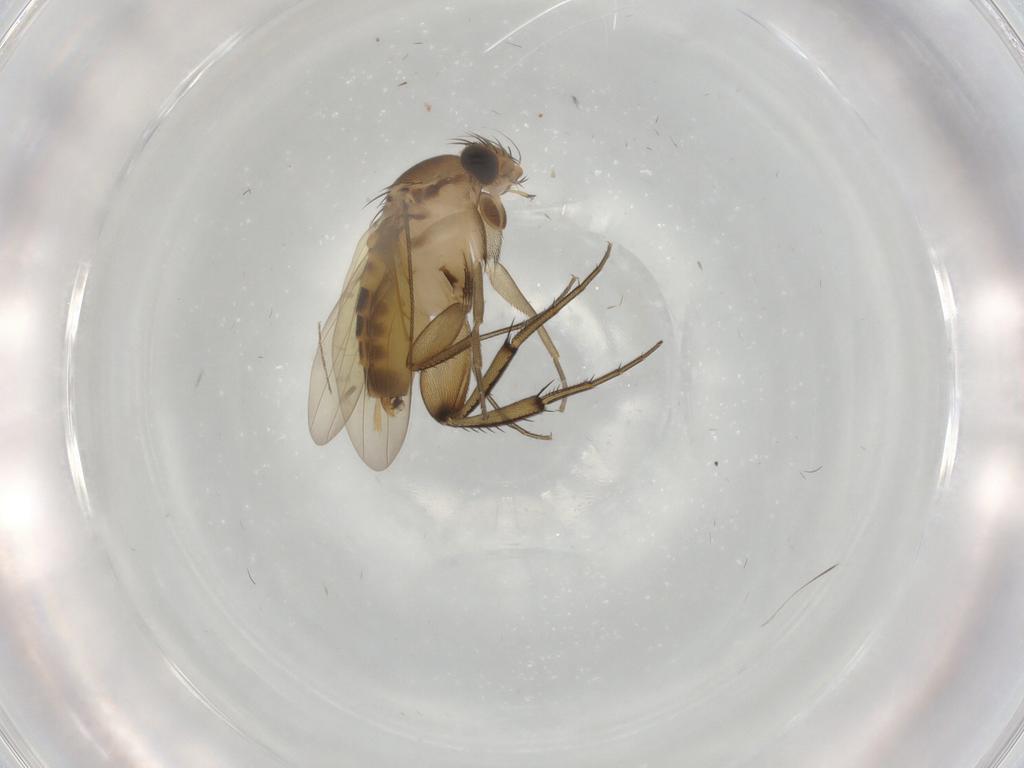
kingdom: Animalia
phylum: Arthropoda
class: Insecta
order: Diptera
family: Phoridae
